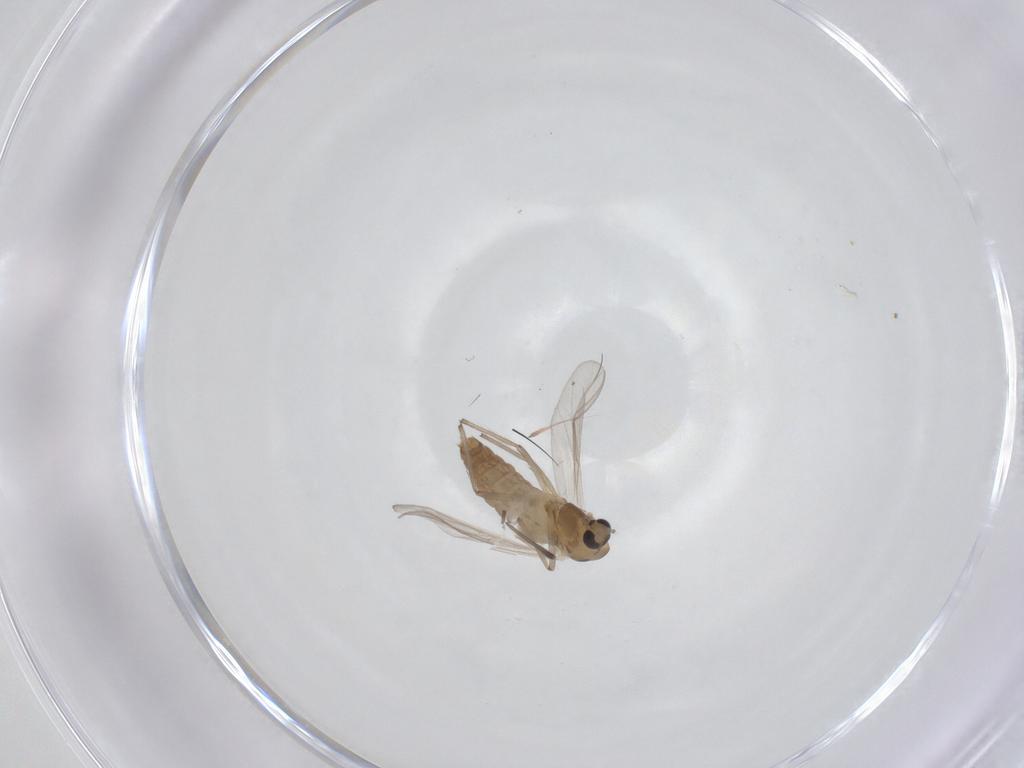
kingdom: Animalia
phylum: Arthropoda
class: Insecta
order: Diptera
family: Chironomidae
